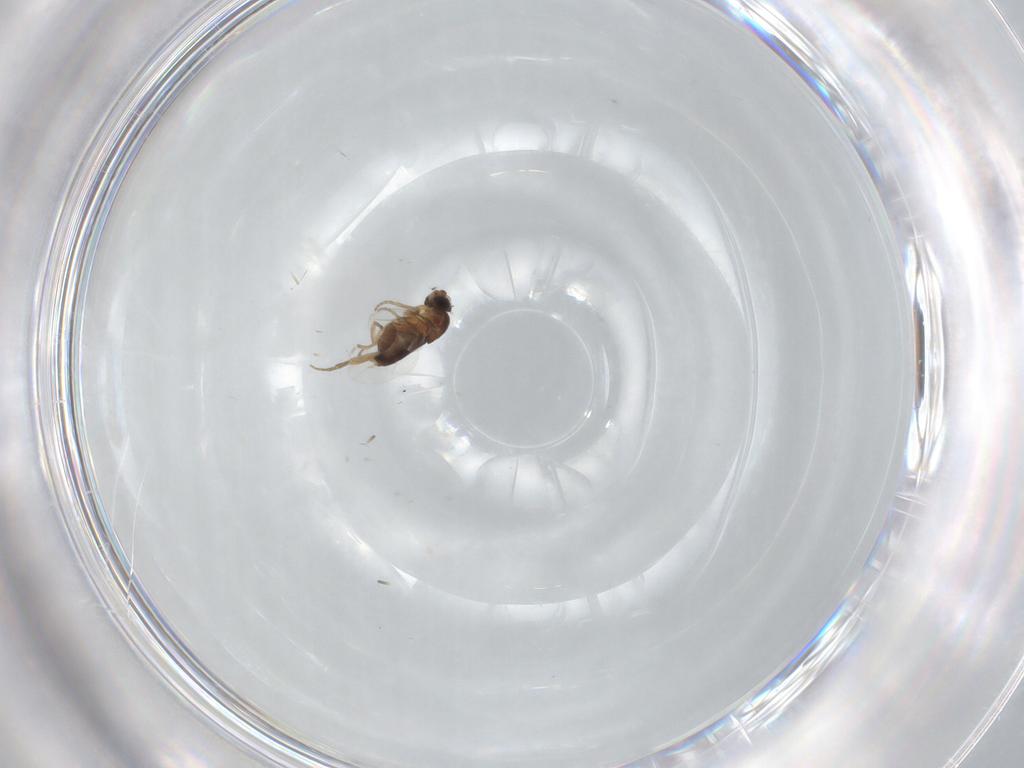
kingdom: Animalia
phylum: Arthropoda
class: Insecta
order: Diptera
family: Phoridae
